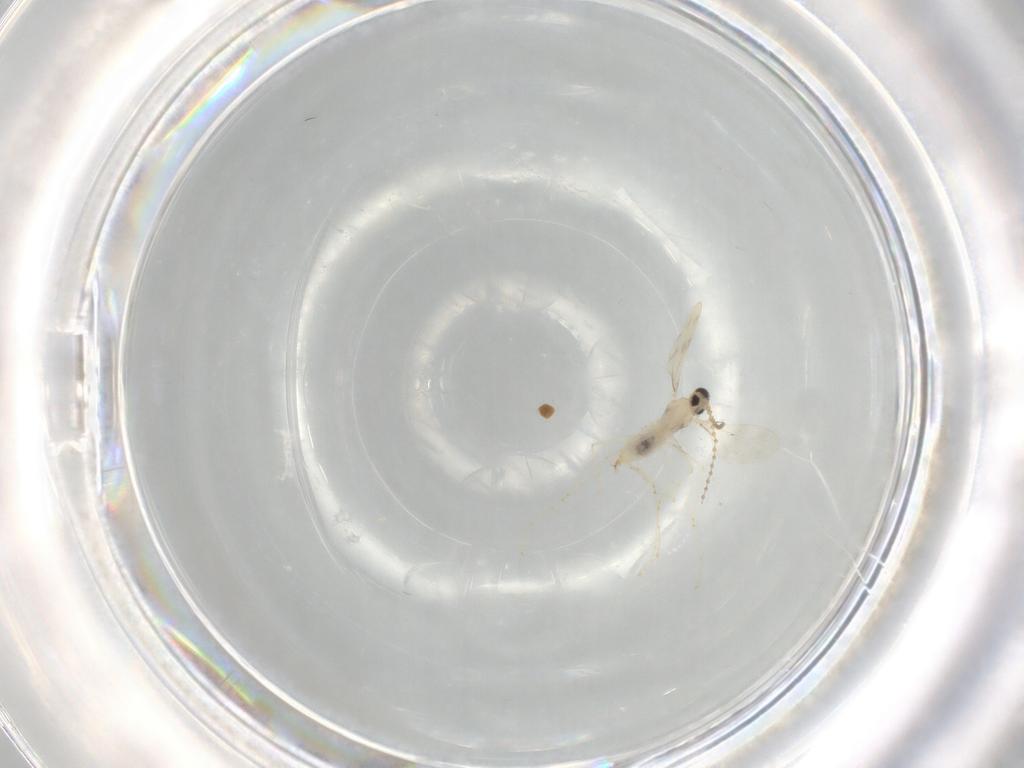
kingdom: Animalia
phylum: Arthropoda
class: Insecta
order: Diptera
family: Cecidomyiidae
